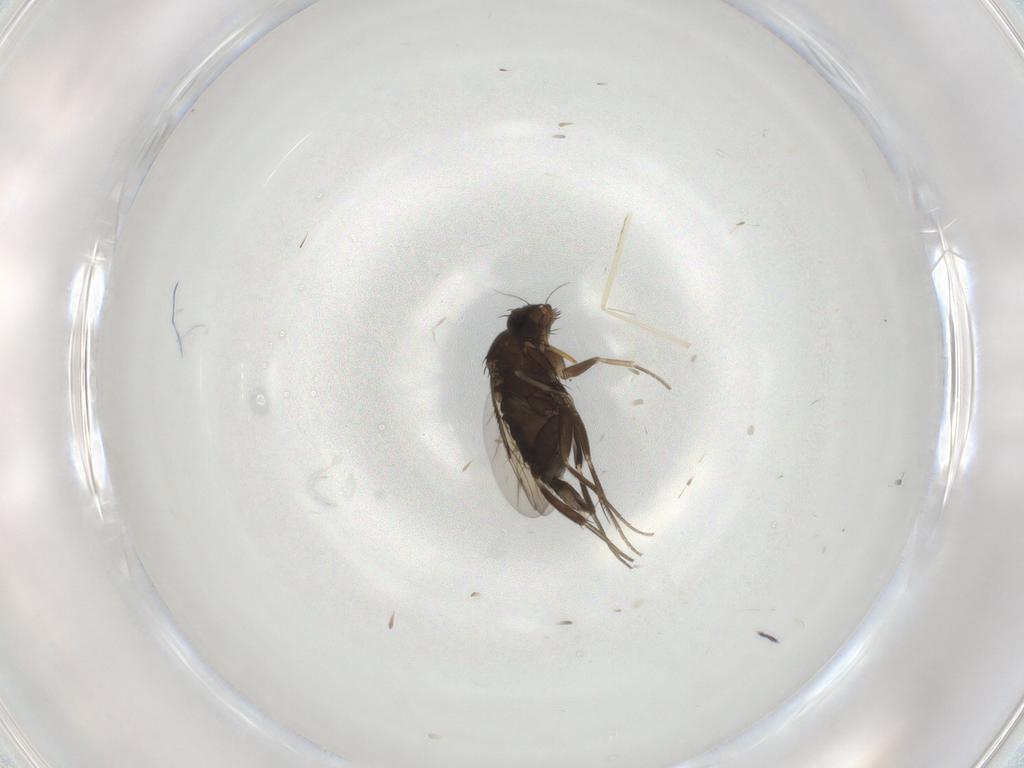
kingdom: Animalia
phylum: Arthropoda
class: Insecta
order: Diptera
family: Cecidomyiidae
